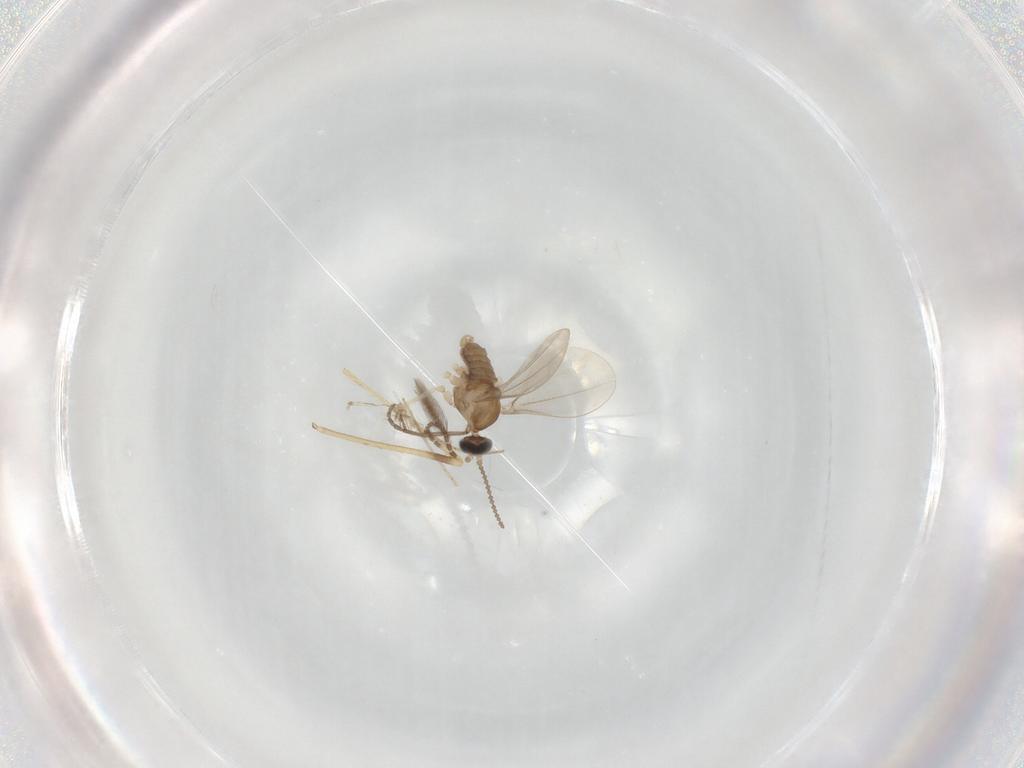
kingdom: Animalia
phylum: Arthropoda
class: Insecta
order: Diptera
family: Cecidomyiidae
